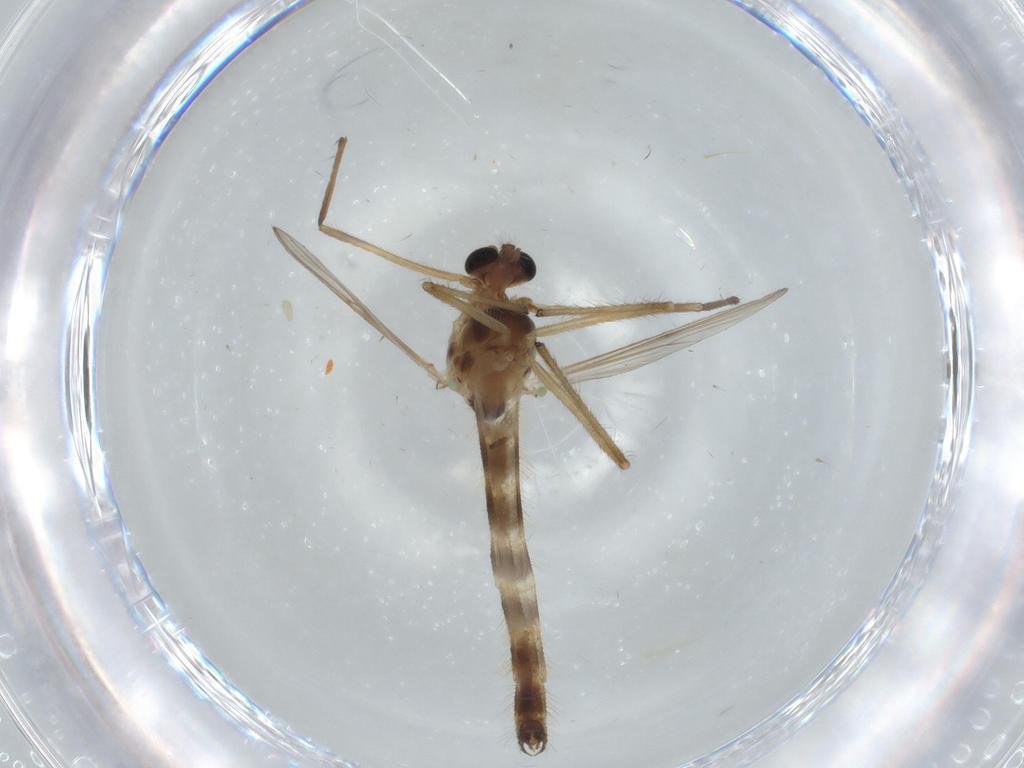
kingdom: Animalia
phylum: Arthropoda
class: Insecta
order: Diptera
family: Chironomidae
